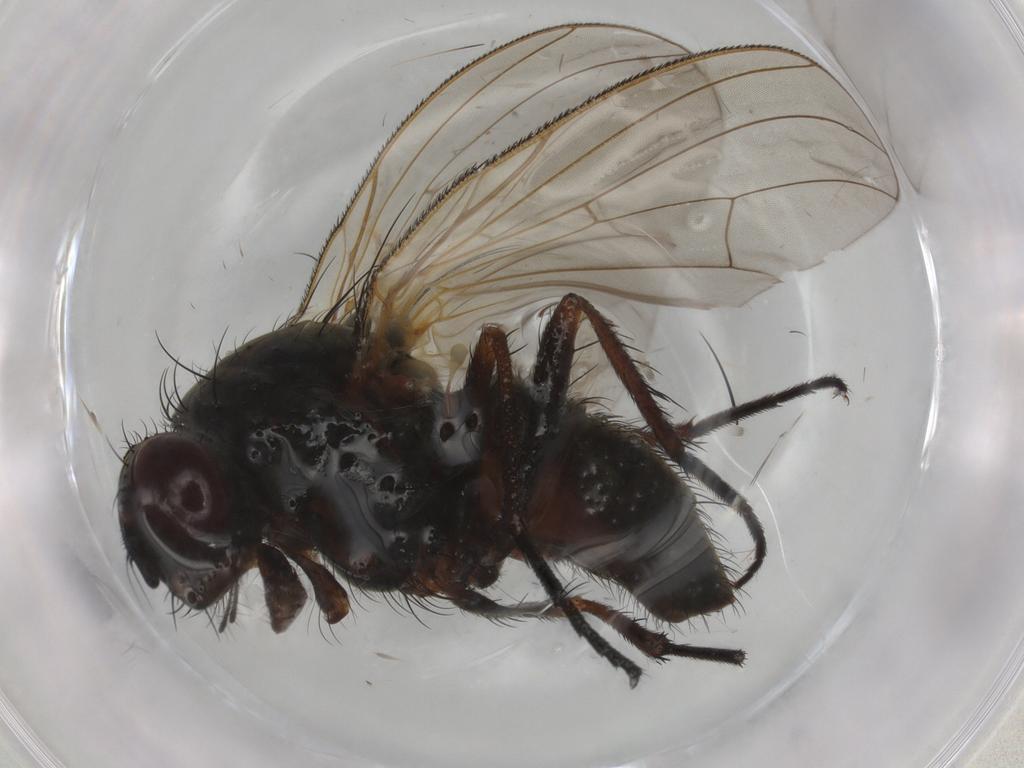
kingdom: Animalia
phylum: Arthropoda
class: Insecta
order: Diptera
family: Anthomyiidae
